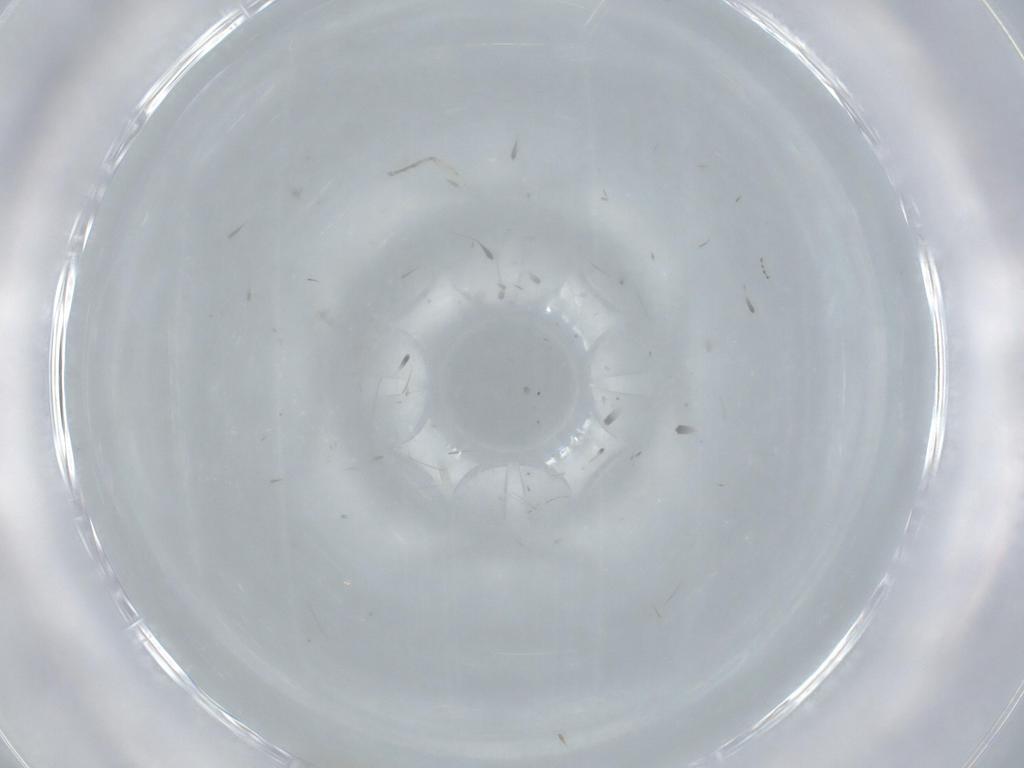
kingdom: Animalia
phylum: Arthropoda
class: Insecta
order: Diptera
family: Cecidomyiidae
